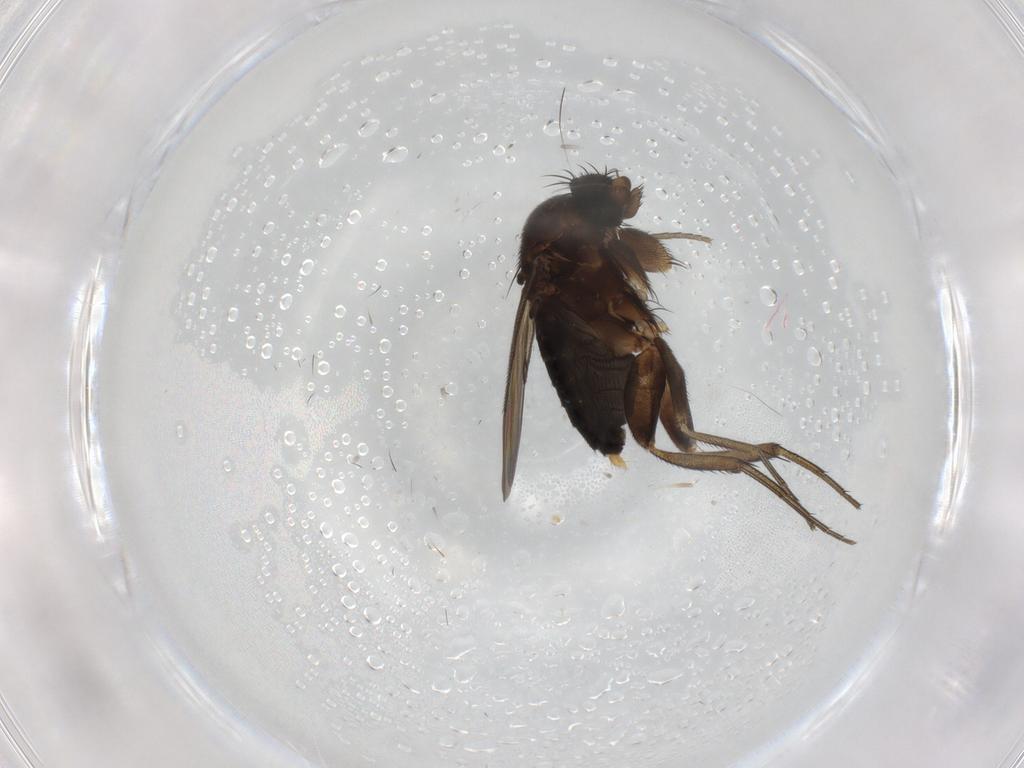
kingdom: Animalia
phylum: Arthropoda
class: Insecta
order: Diptera
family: Phoridae
